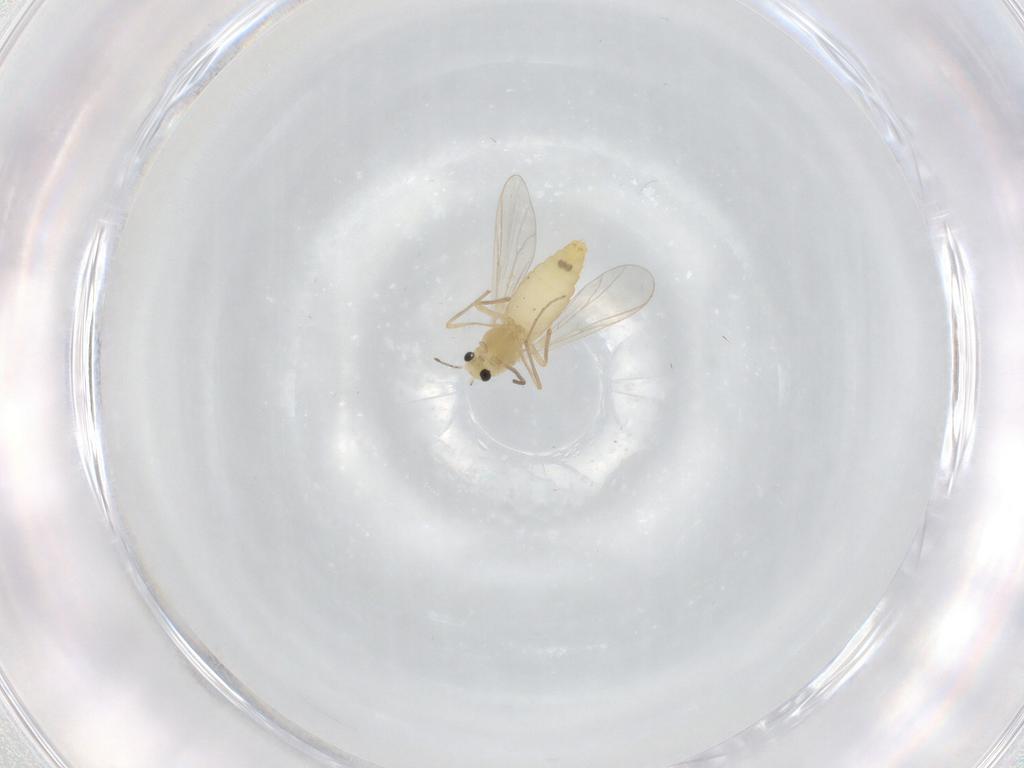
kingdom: Animalia
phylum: Arthropoda
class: Insecta
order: Diptera
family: Chironomidae
